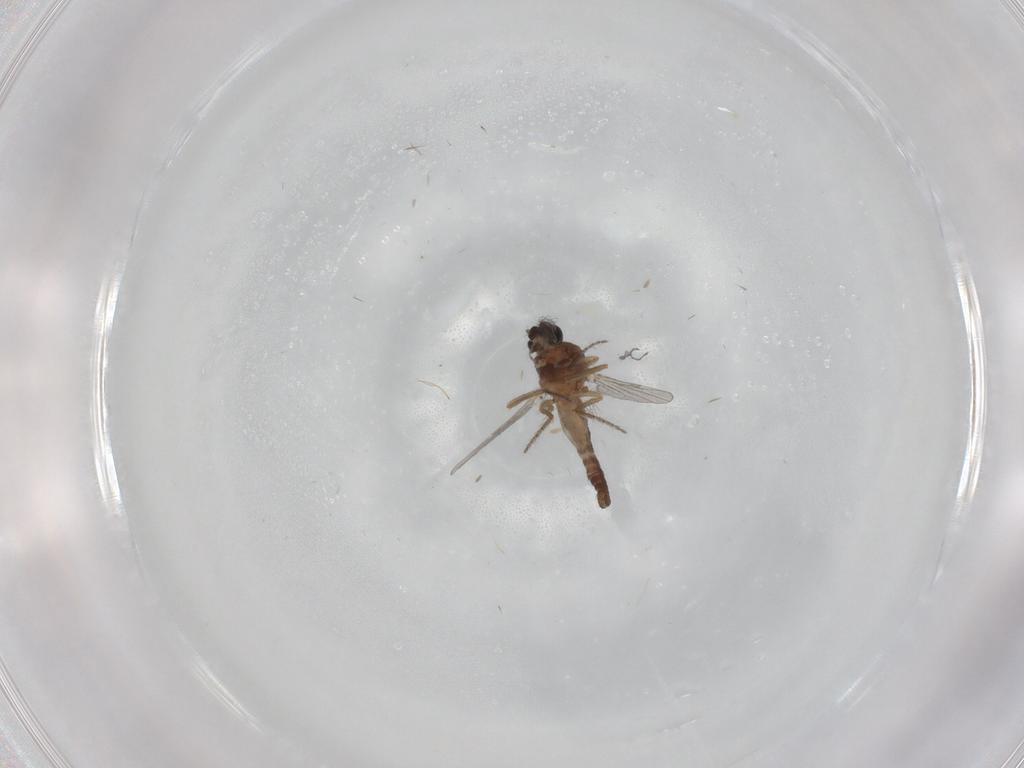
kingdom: Animalia
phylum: Arthropoda
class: Insecta
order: Diptera
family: Ceratopogonidae
